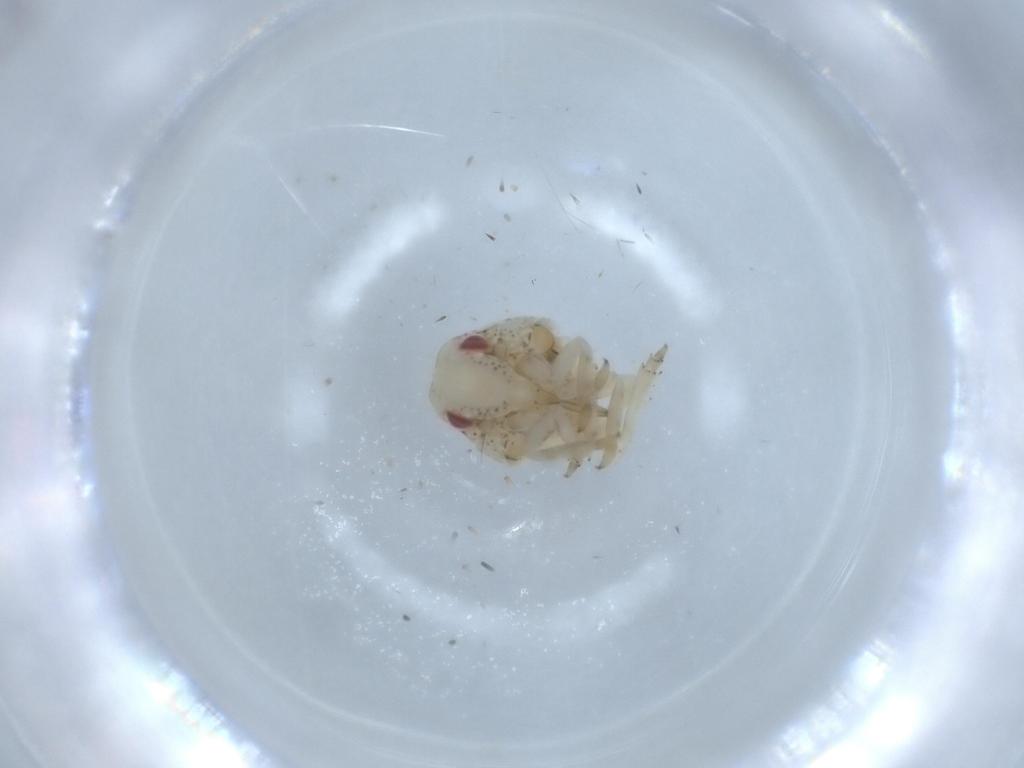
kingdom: Animalia
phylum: Arthropoda
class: Insecta
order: Hemiptera
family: Acanaloniidae
